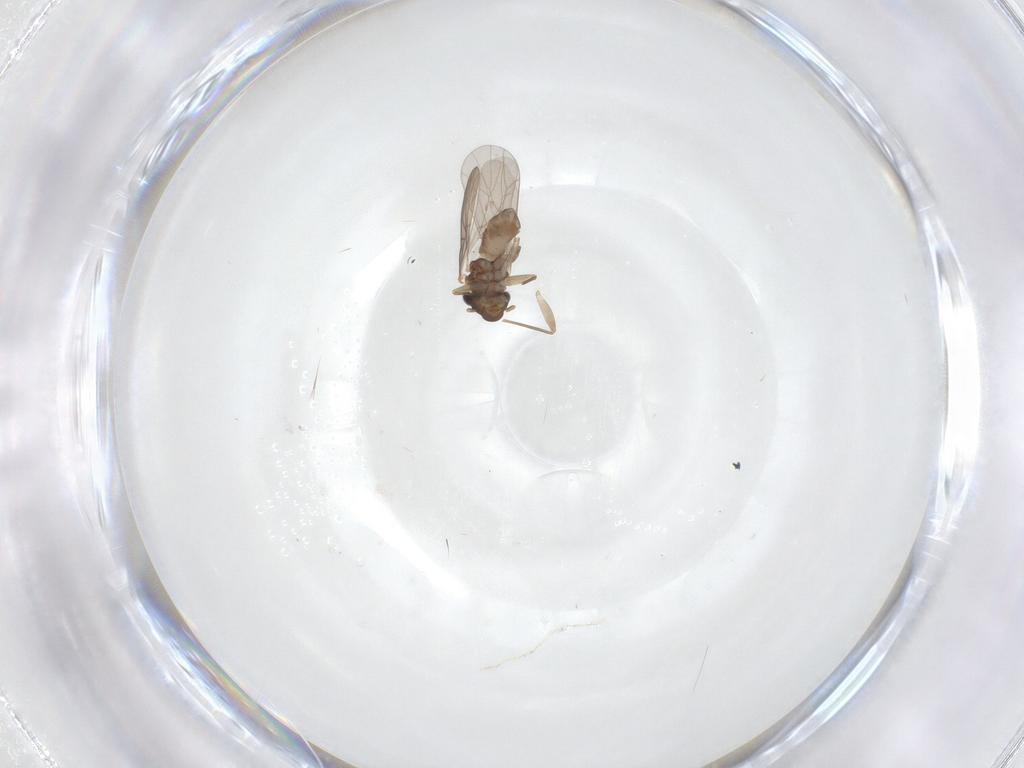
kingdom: Animalia
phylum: Arthropoda
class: Insecta
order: Psocodea
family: Lepidopsocidae
